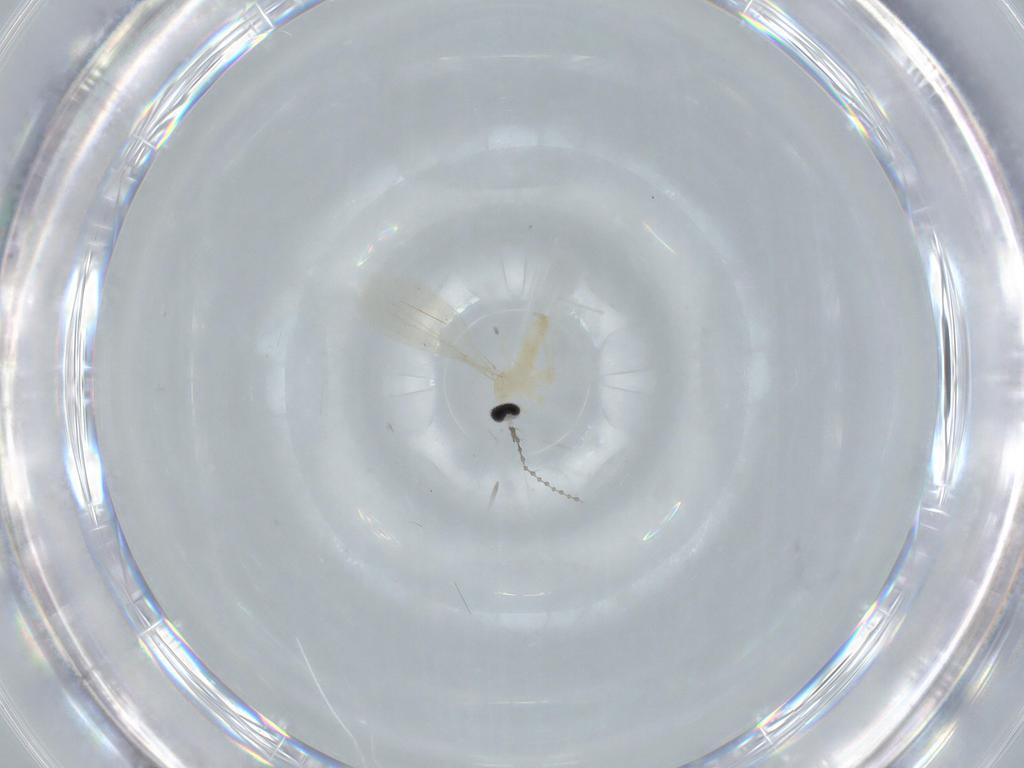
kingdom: Animalia
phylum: Arthropoda
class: Insecta
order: Diptera
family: Cecidomyiidae
